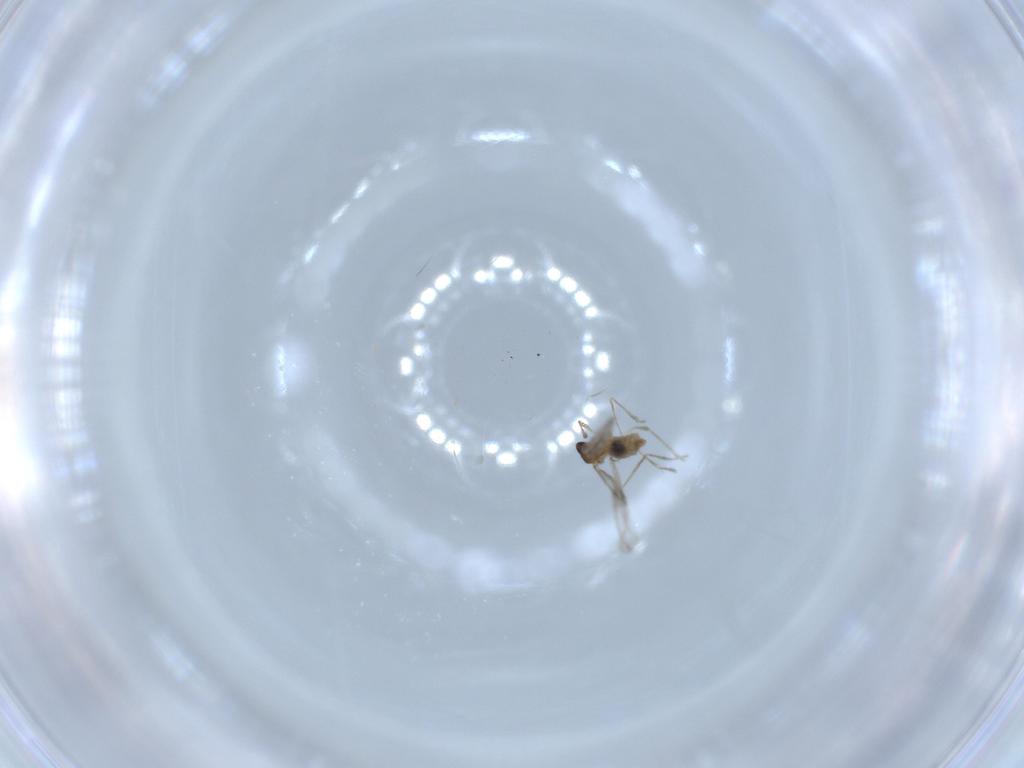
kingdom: Animalia
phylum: Arthropoda
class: Insecta
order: Diptera
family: Cecidomyiidae
